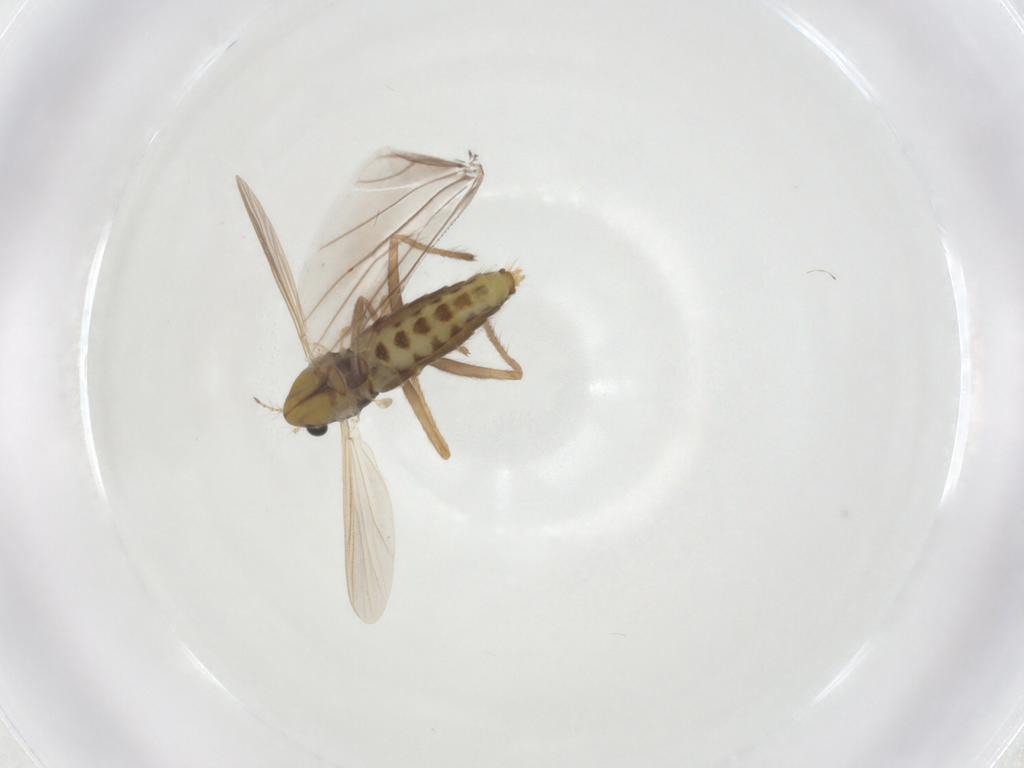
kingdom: Animalia
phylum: Arthropoda
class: Insecta
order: Diptera
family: Chironomidae
